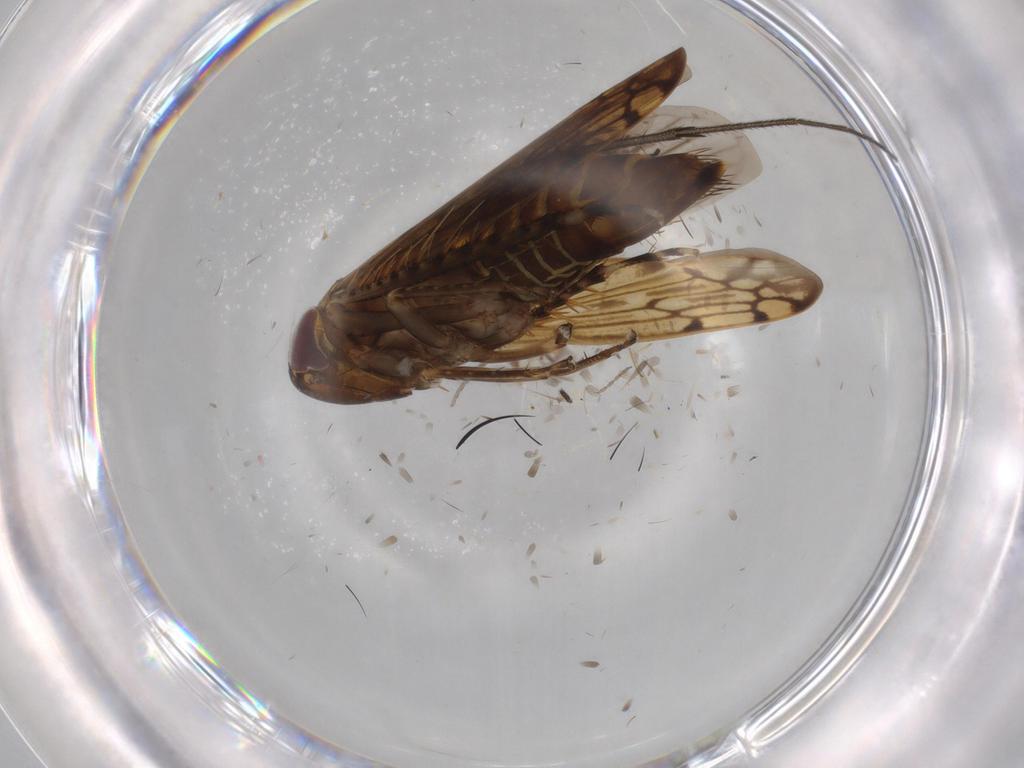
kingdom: Animalia
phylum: Arthropoda
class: Insecta
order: Hemiptera
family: Cicadellidae
